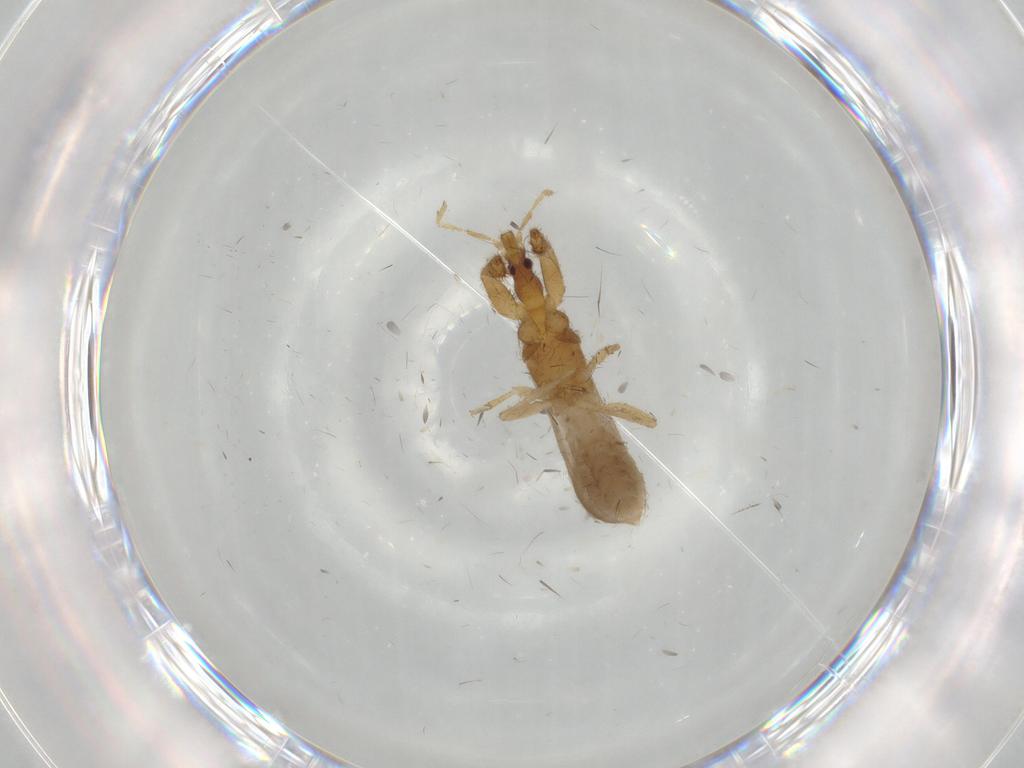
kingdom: Animalia
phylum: Arthropoda
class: Insecta
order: Hemiptera
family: Enicocephalidae
